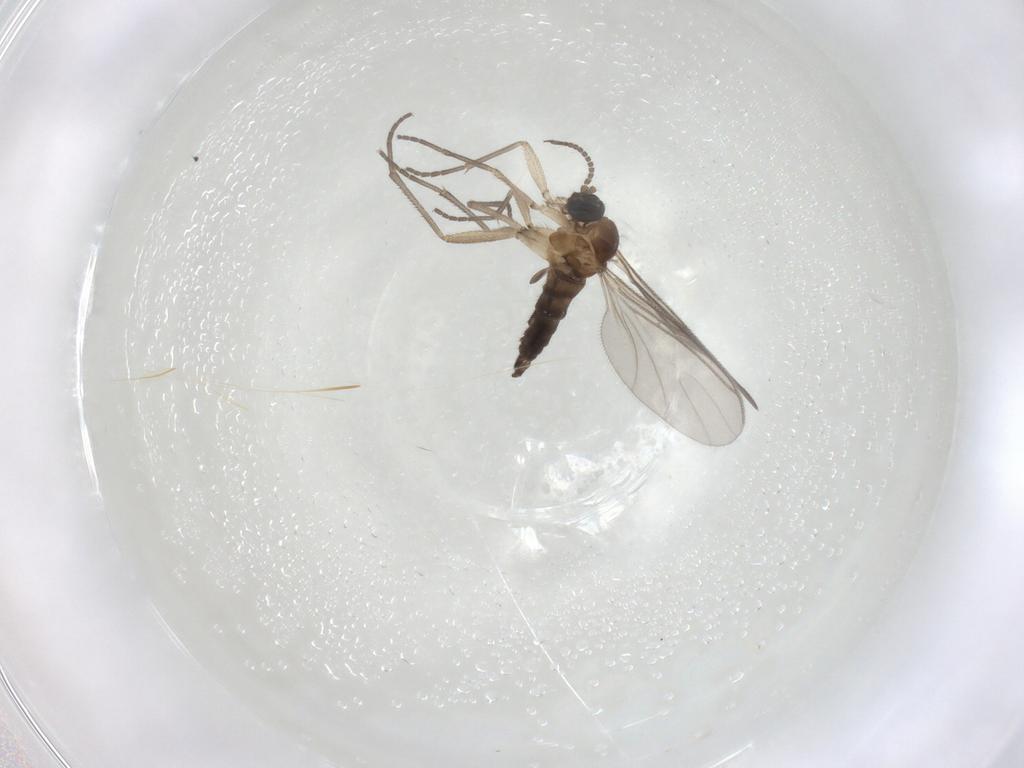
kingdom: Animalia
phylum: Arthropoda
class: Insecta
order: Diptera
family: Sciaridae
